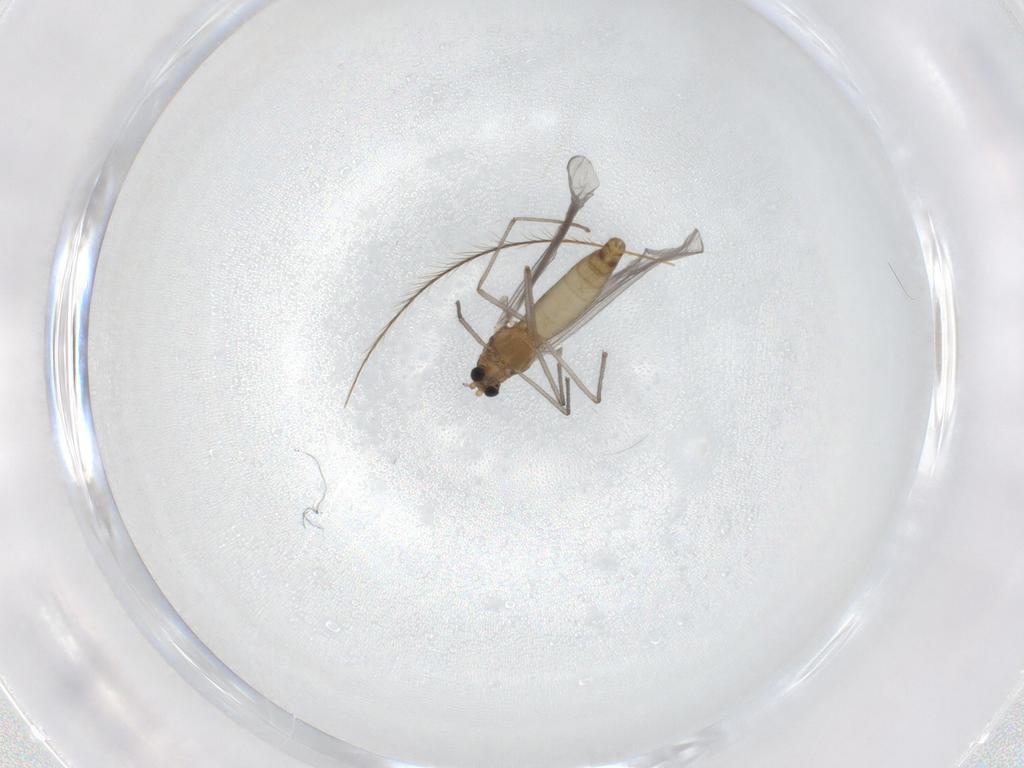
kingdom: Animalia
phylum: Arthropoda
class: Insecta
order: Diptera
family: Chironomidae
